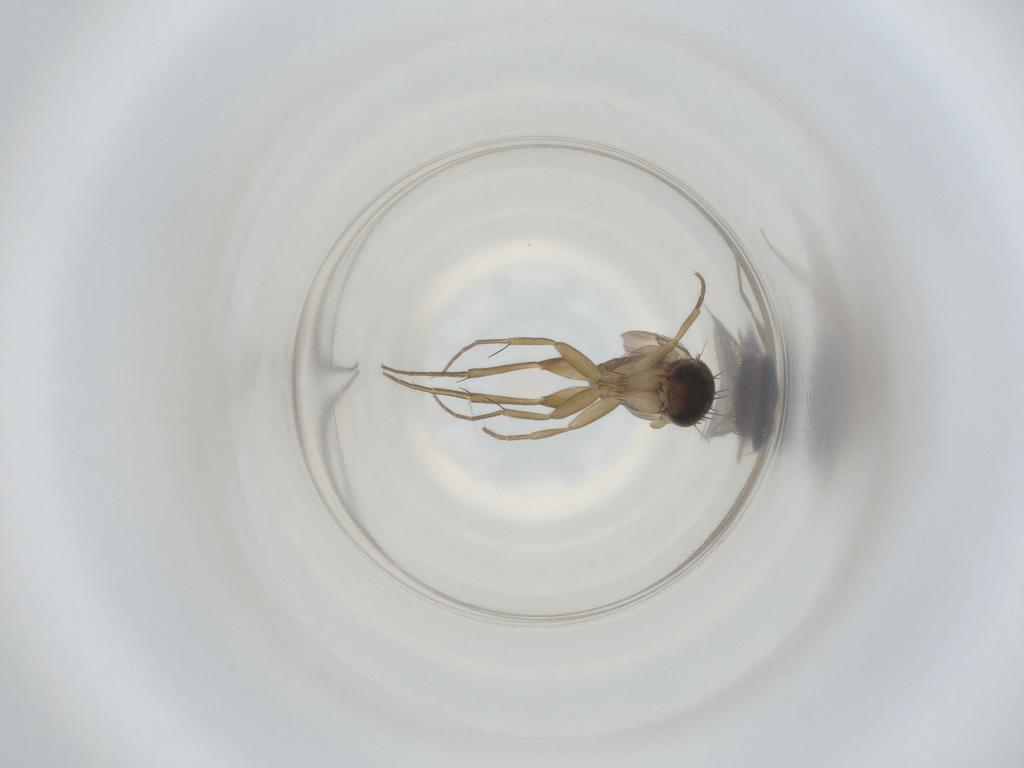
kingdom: Animalia
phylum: Arthropoda
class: Insecta
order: Diptera
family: Phoridae
